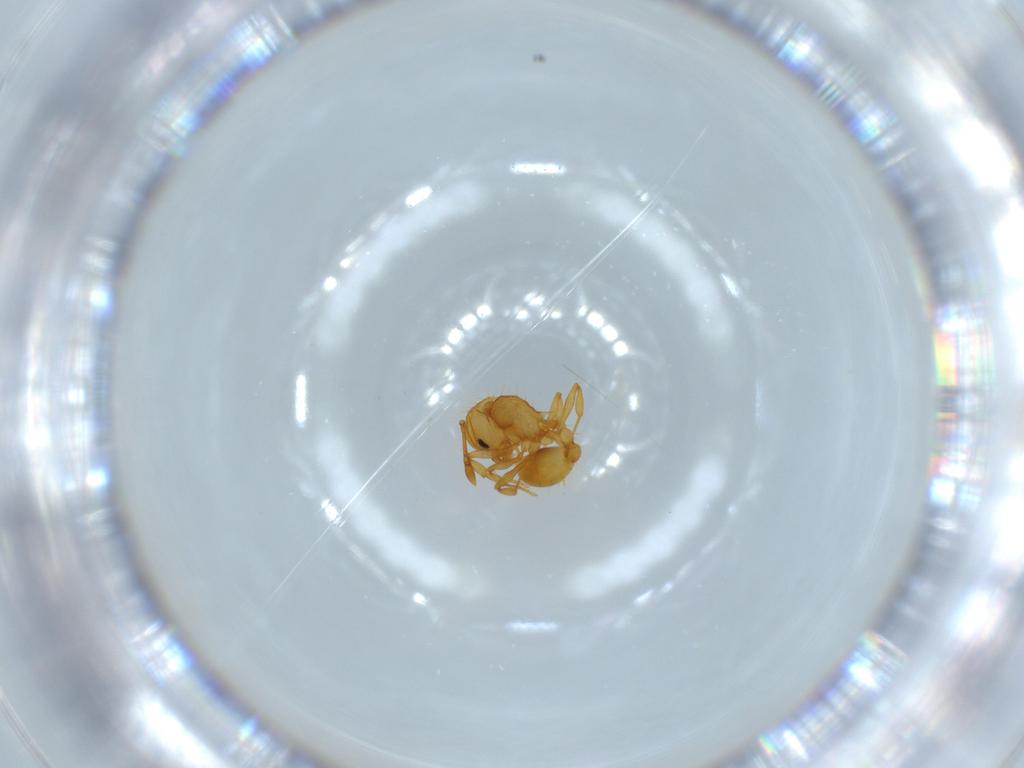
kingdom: Animalia
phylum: Arthropoda
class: Insecta
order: Hymenoptera
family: Formicidae
